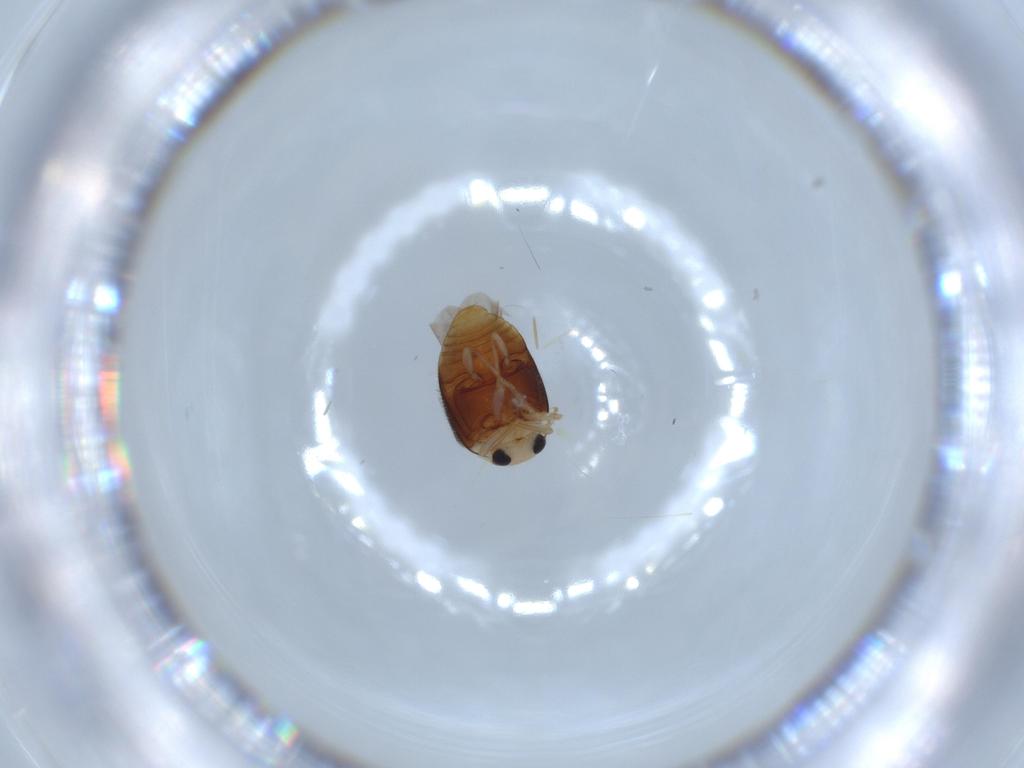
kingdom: Animalia
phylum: Arthropoda
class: Insecta
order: Coleoptera
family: Coccinellidae
